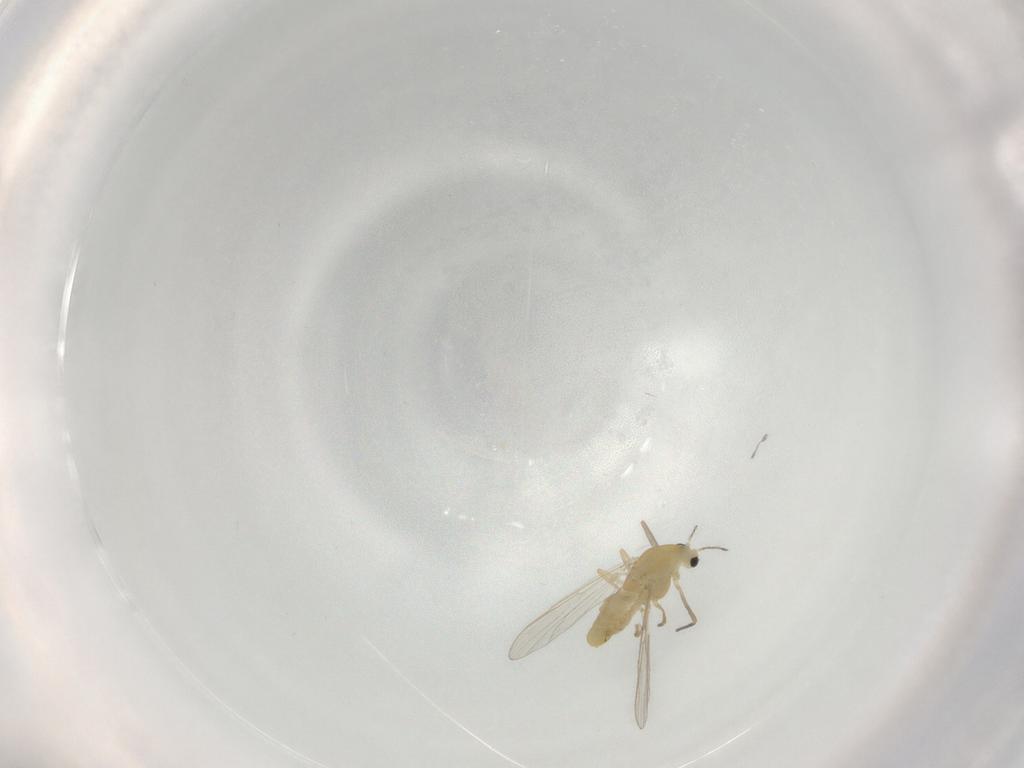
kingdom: Animalia
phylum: Arthropoda
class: Insecta
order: Diptera
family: Chironomidae
